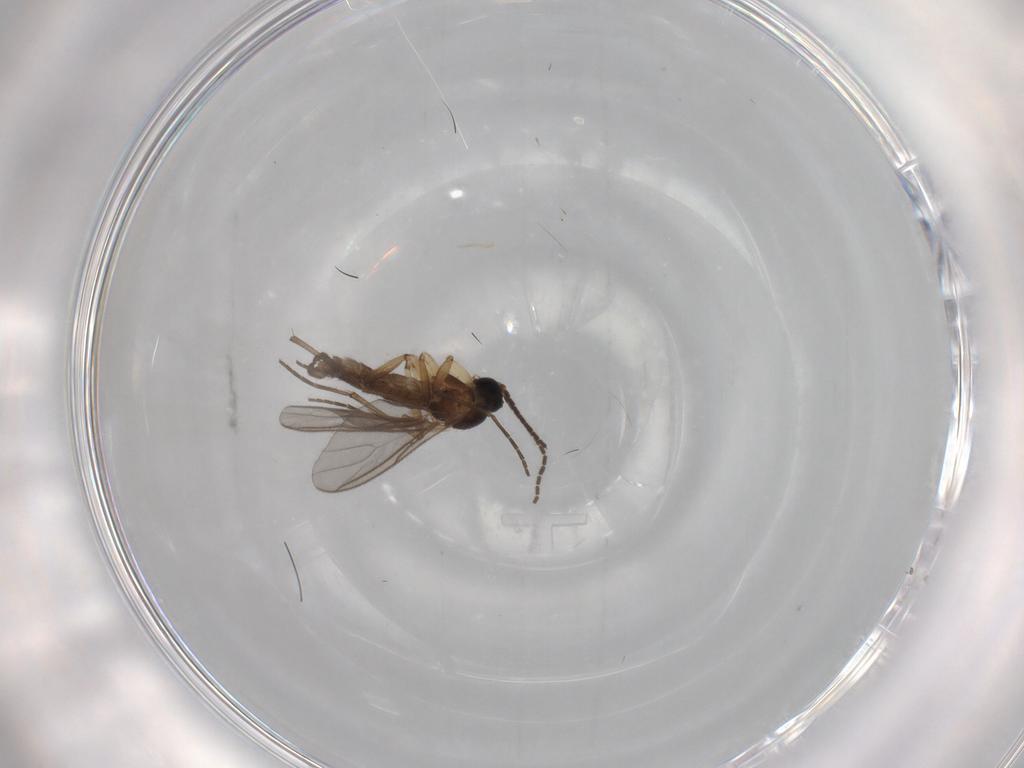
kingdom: Animalia
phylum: Arthropoda
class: Insecta
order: Diptera
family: Sciaridae
